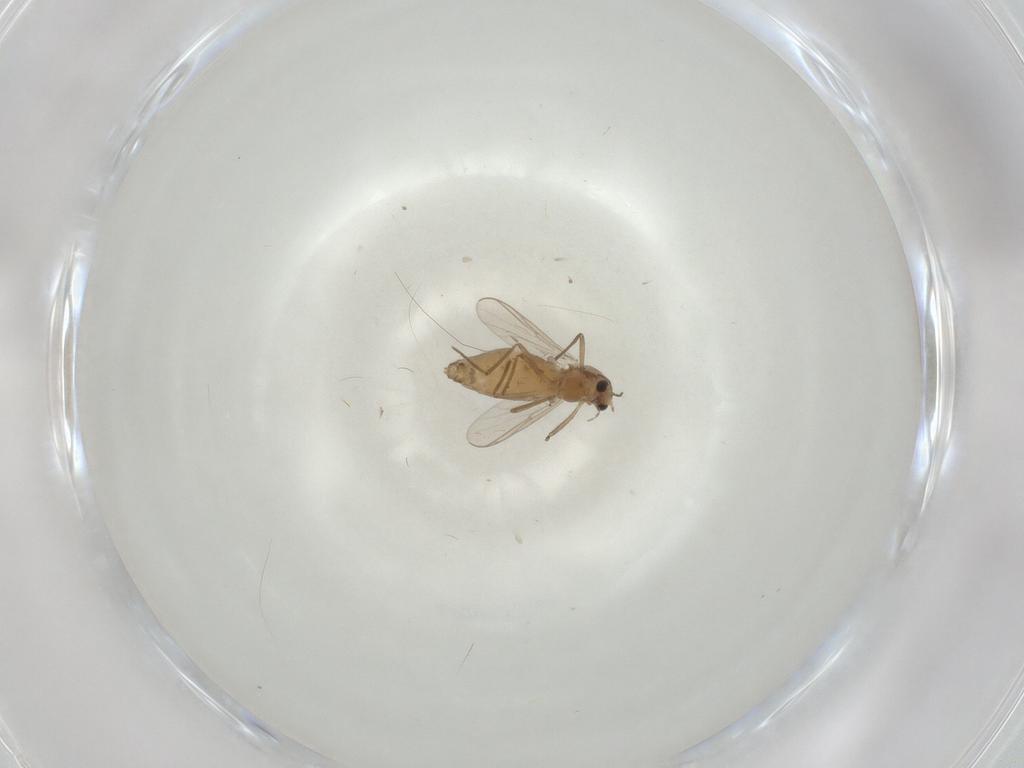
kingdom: Animalia
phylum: Arthropoda
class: Insecta
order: Diptera
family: Chironomidae
